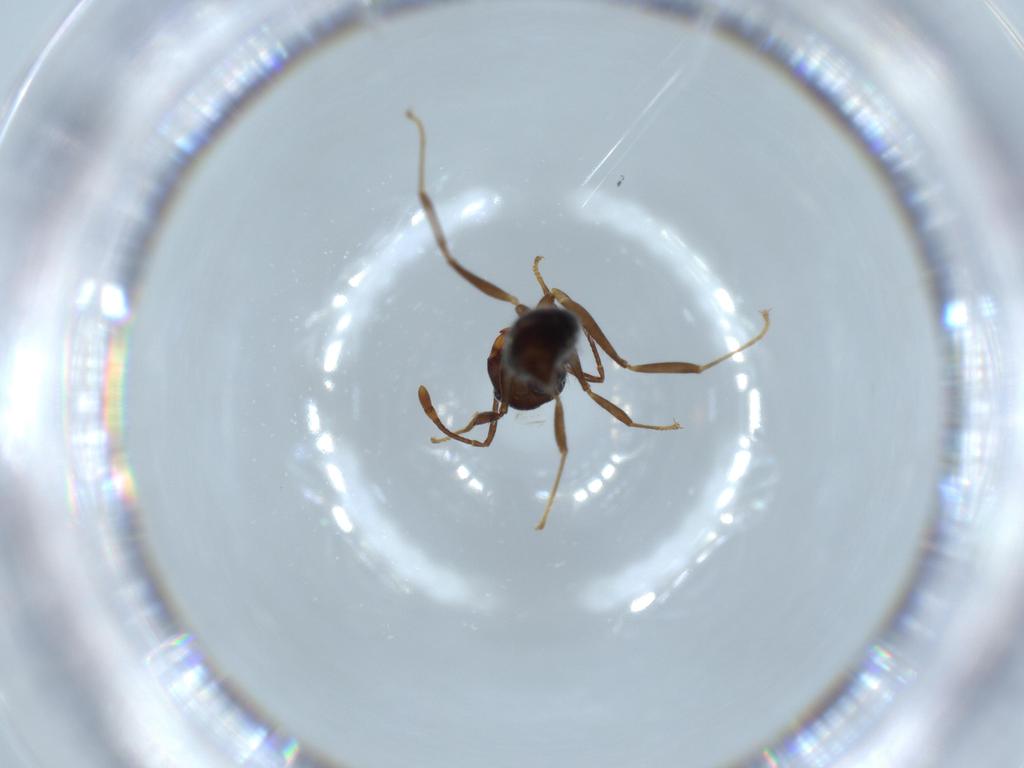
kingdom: Animalia
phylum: Arthropoda
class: Insecta
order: Hymenoptera
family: Formicidae
